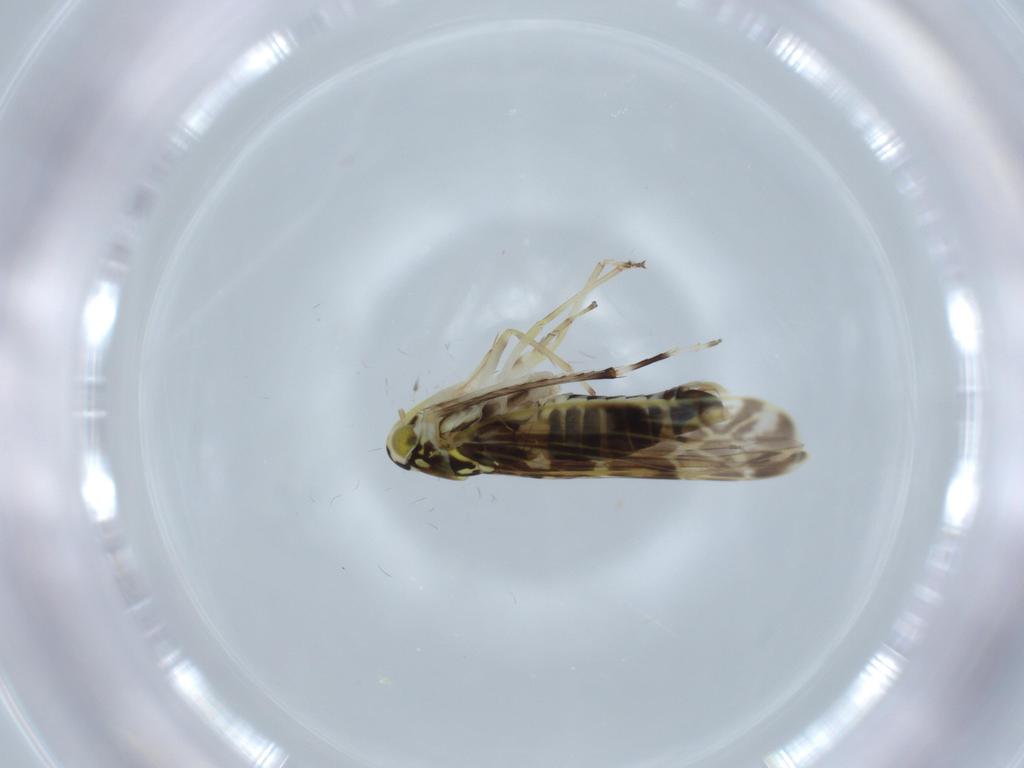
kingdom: Animalia
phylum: Arthropoda
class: Insecta
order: Hemiptera
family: Cicadellidae
